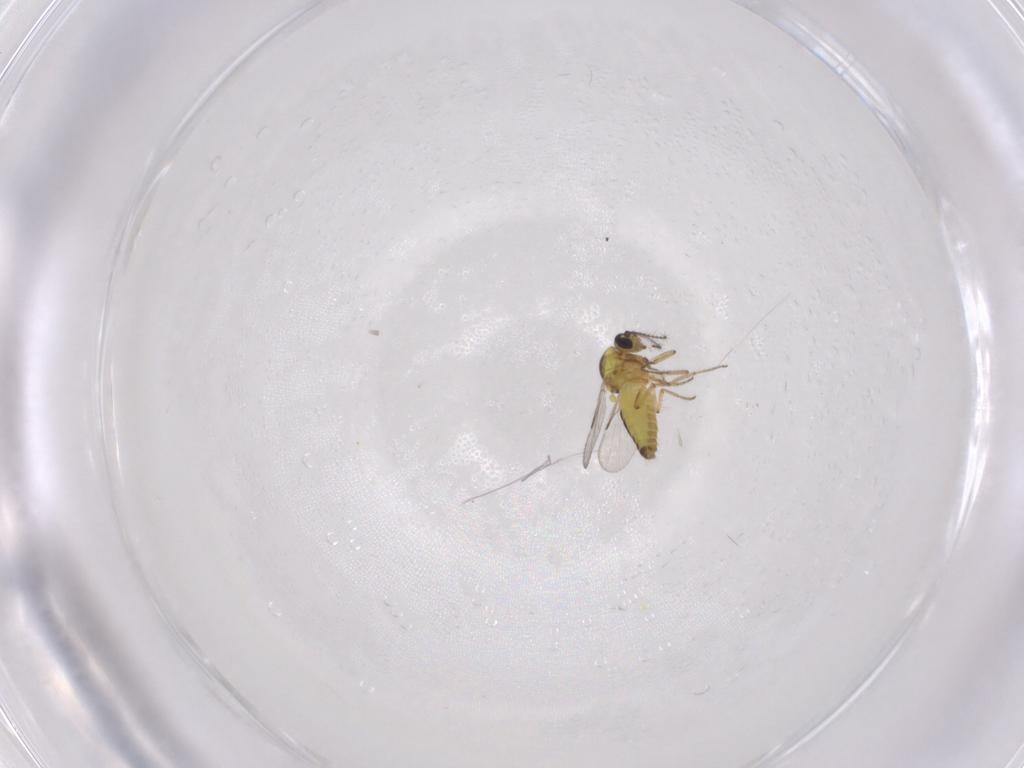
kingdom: Animalia
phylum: Arthropoda
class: Insecta
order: Diptera
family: Ceratopogonidae
